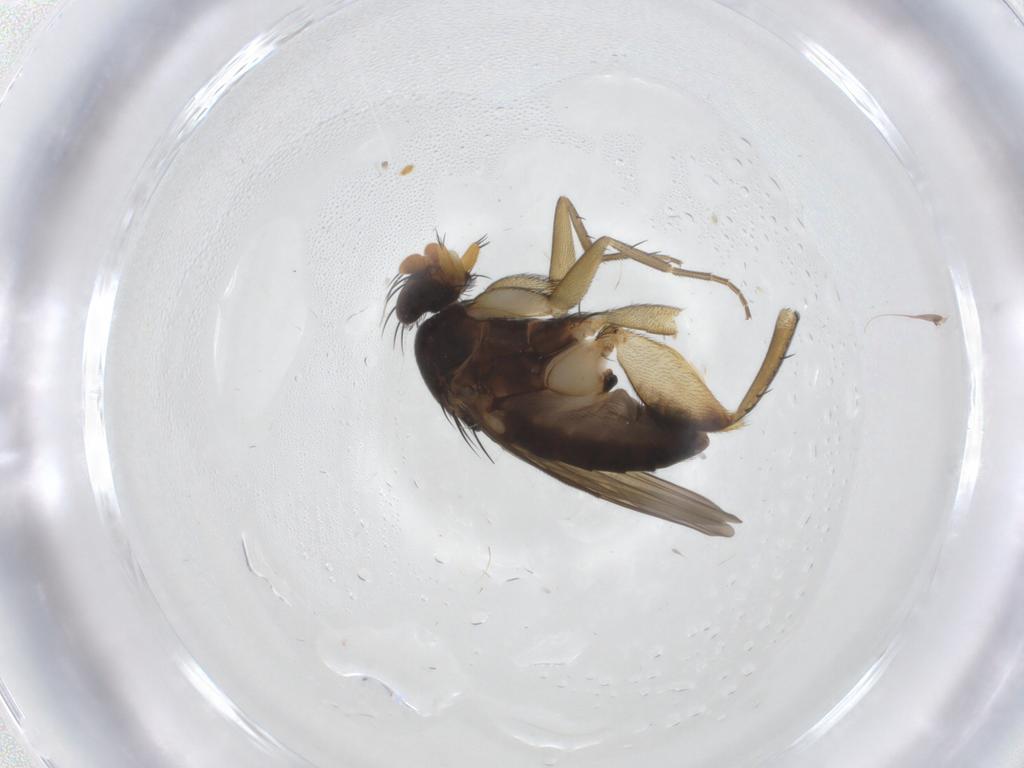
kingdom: Animalia
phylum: Arthropoda
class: Insecta
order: Diptera
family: Phoridae
